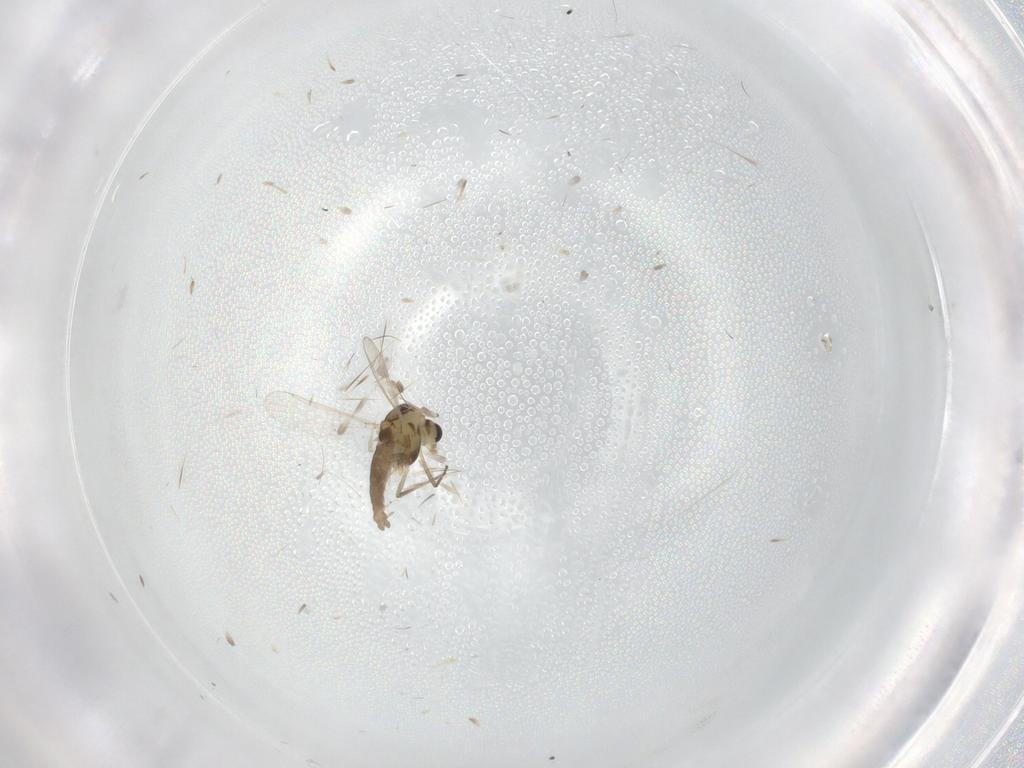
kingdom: Animalia
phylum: Arthropoda
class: Insecta
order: Diptera
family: Chironomidae
